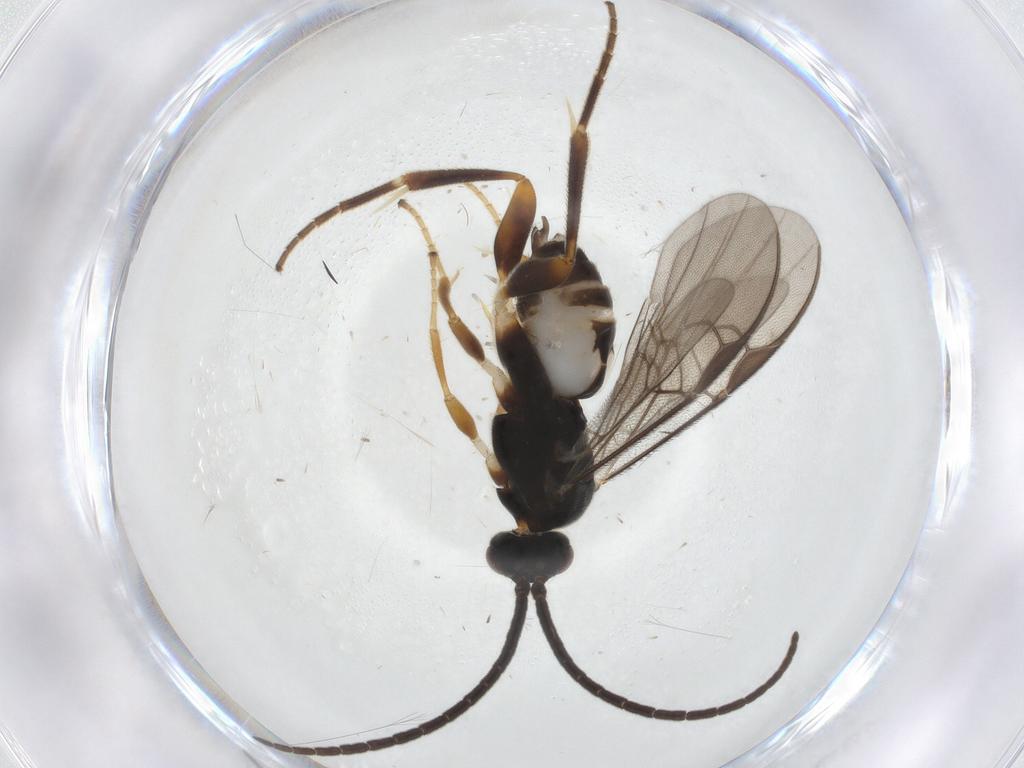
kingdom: Animalia
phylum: Arthropoda
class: Insecta
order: Hymenoptera
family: Braconidae
